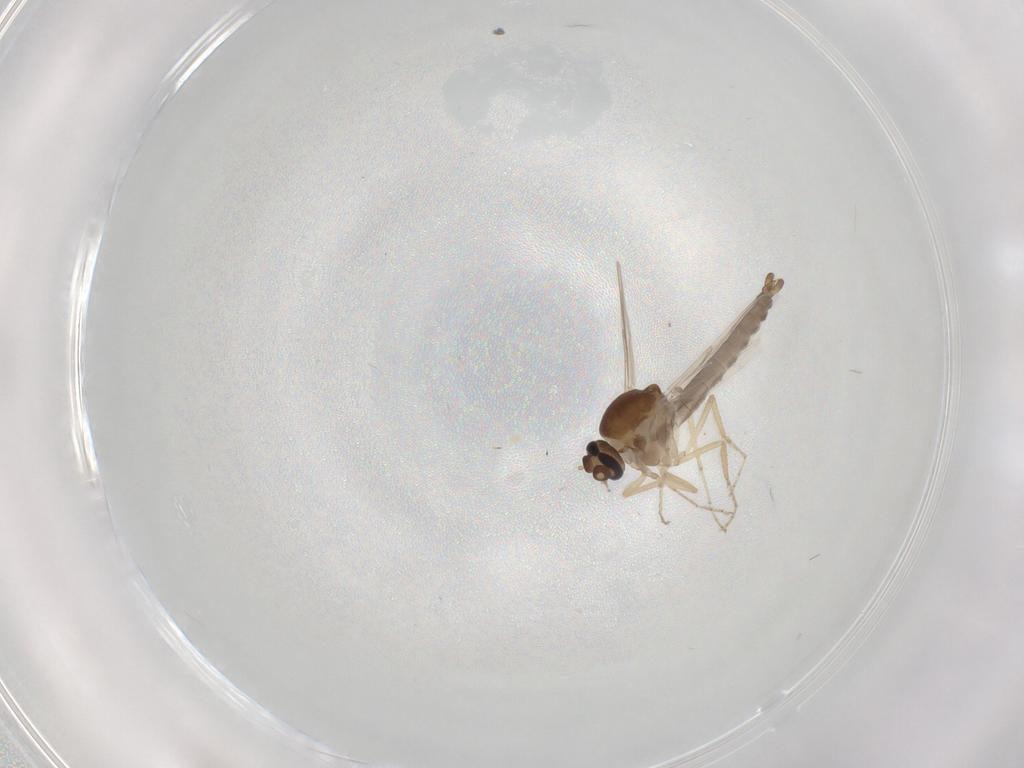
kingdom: Animalia
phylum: Arthropoda
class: Insecta
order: Diptera
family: Ceratopogonidae
